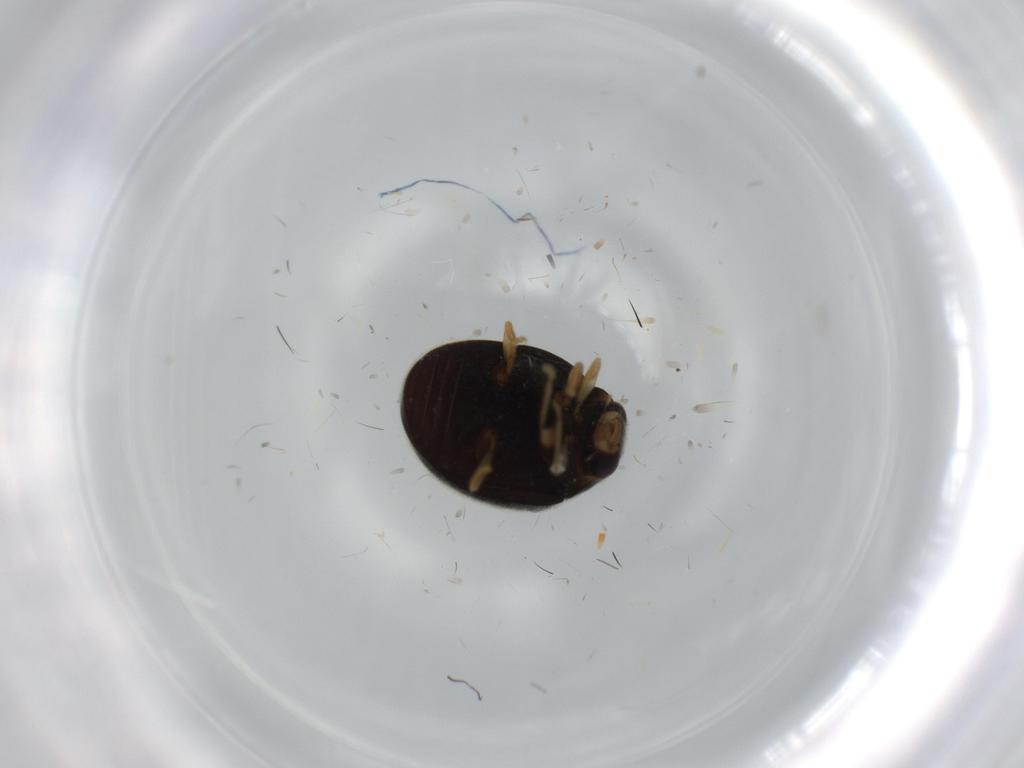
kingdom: Animalia
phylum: Arthropoda
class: Insecta
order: Coleoptera
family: Coccinellidae
